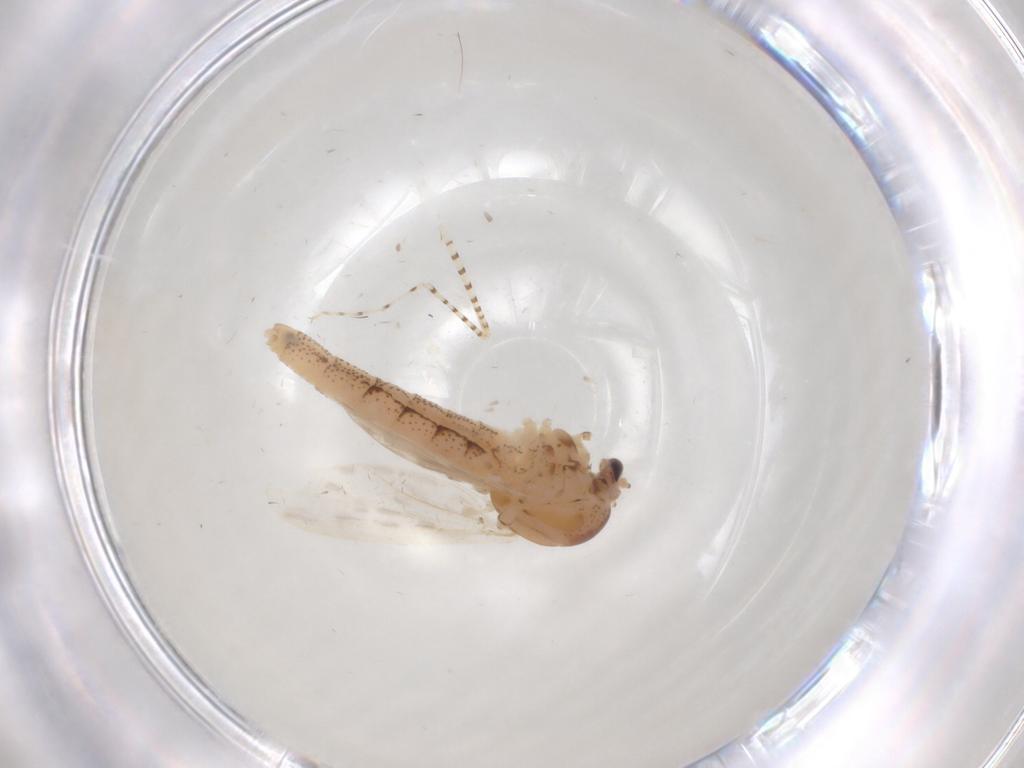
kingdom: Animalia
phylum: Arthropoda
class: Insecta
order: Diptera
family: Chaoboridae
